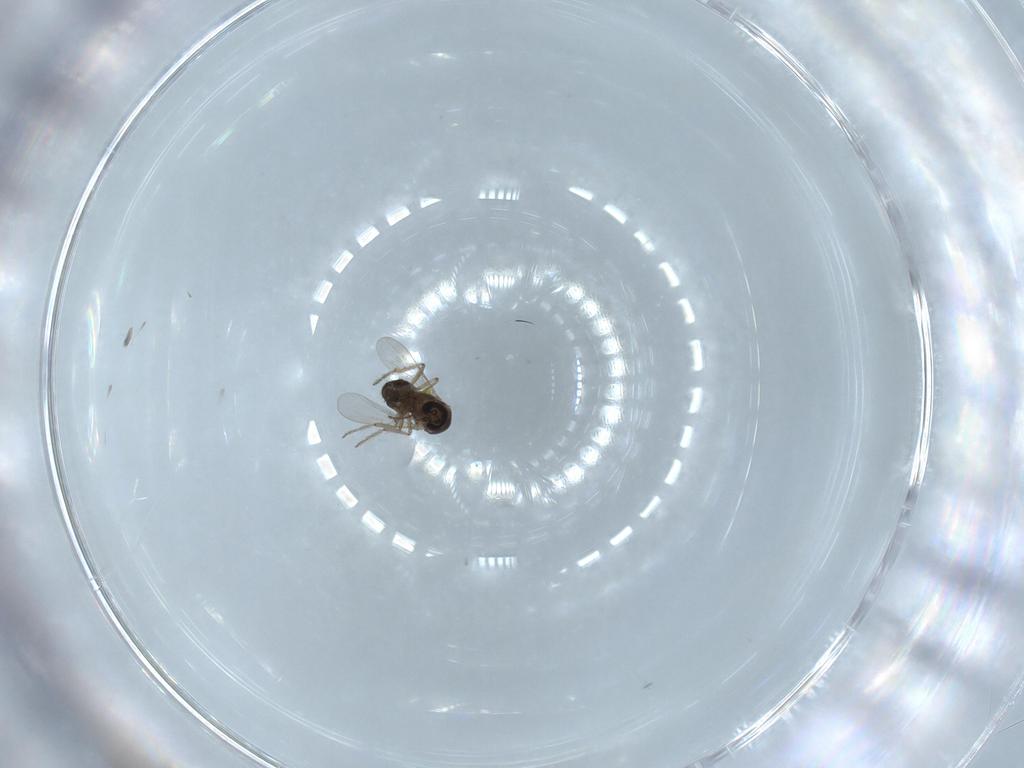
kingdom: Animalia
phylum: Arthropoda
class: Insecta
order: Diptera
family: Ceratopogonidae
